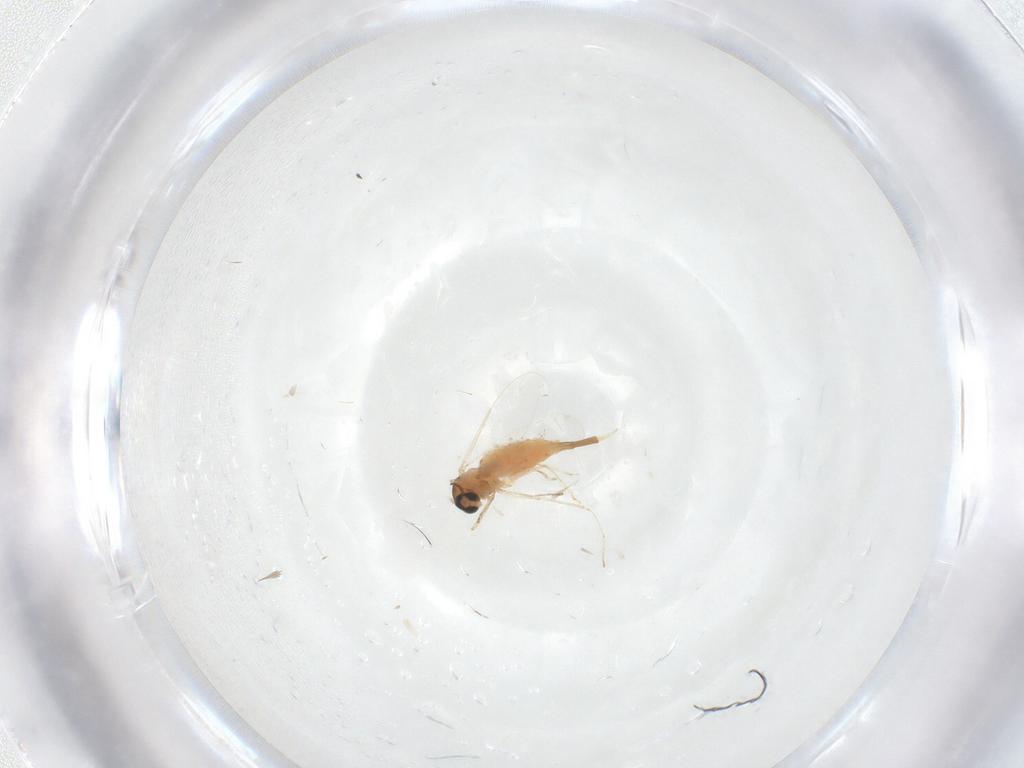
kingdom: Animalia
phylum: Arthropoda
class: Insecta
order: Diptera
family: Cecidomyiidae
